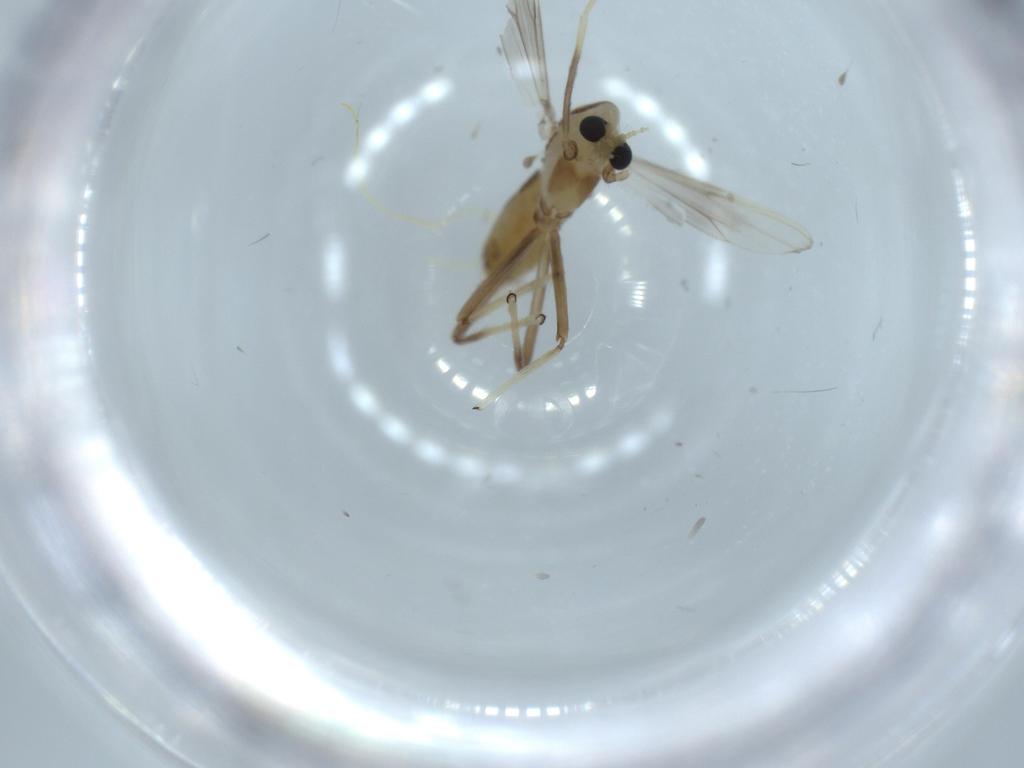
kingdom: Animalia
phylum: Arthropoda
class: Insecta
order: Diptera
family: Chironomidae
